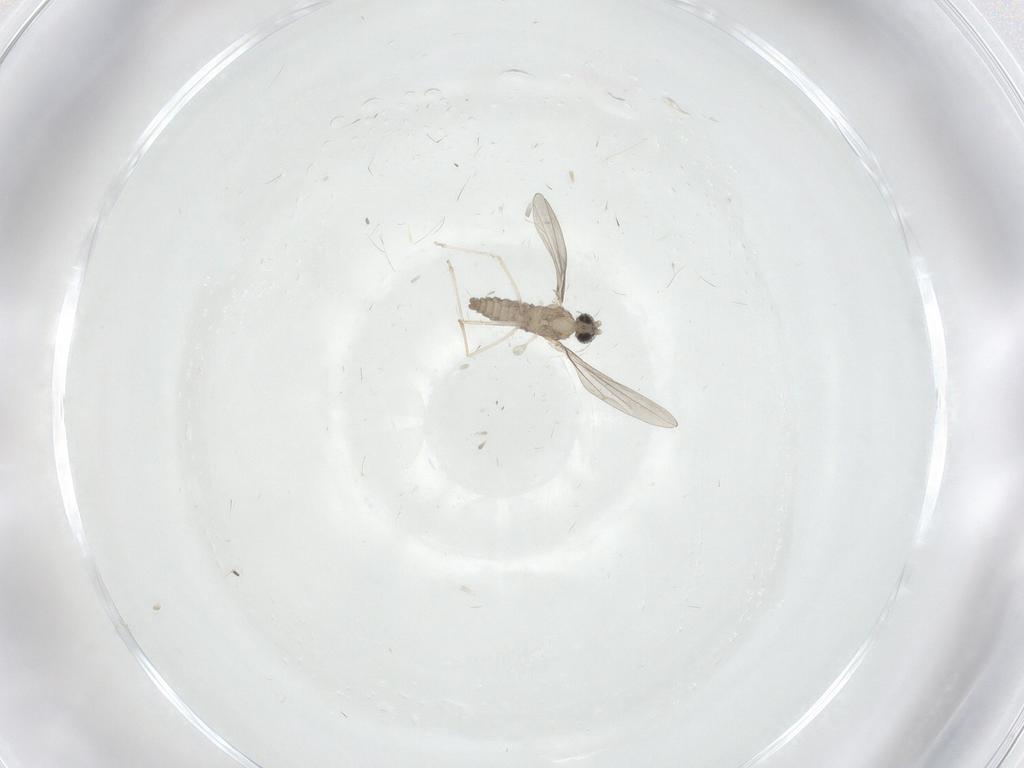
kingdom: Animalia
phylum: Arthropoda
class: Insecta
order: Diptera
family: Cecidomyiidae
